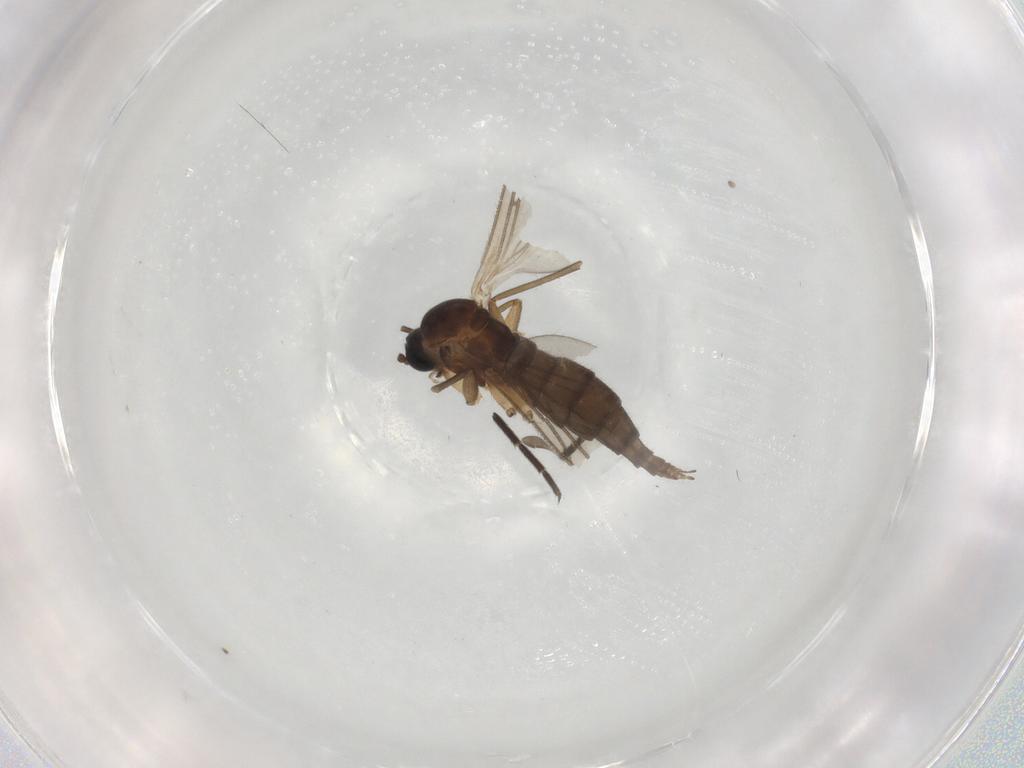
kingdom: Animalia
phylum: Arthropoda
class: Insecta
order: Diptera
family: Sciaridae
